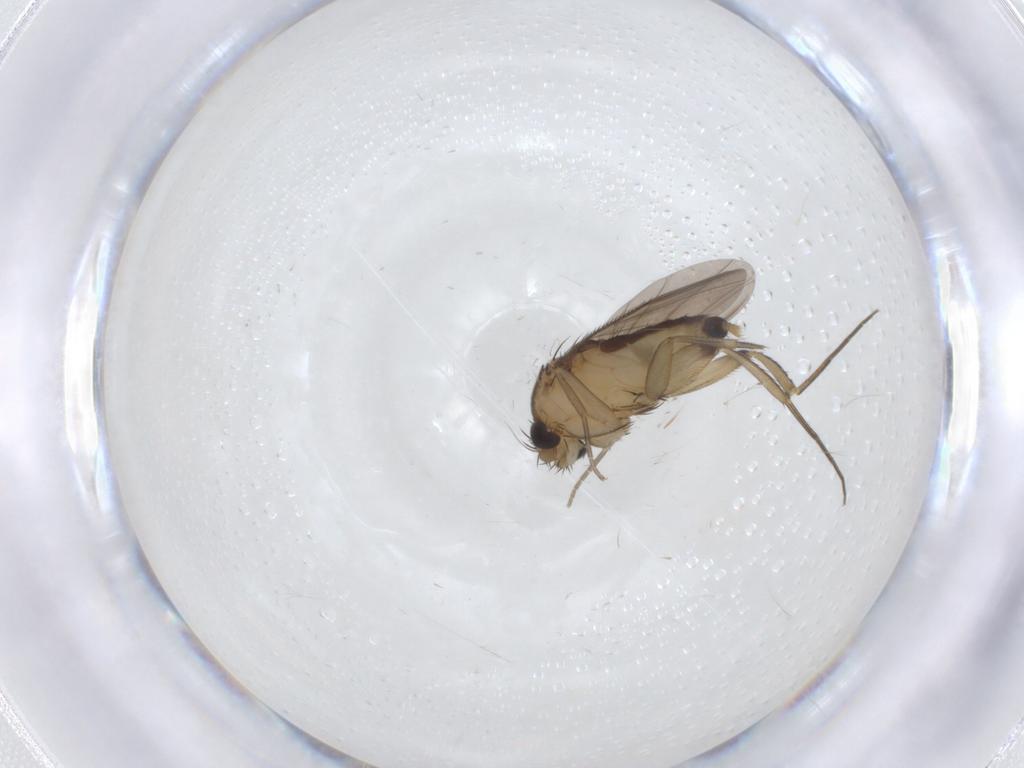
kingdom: Animalia
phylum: Arthropoda
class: Insecta
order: Diptera
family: Phoridae
